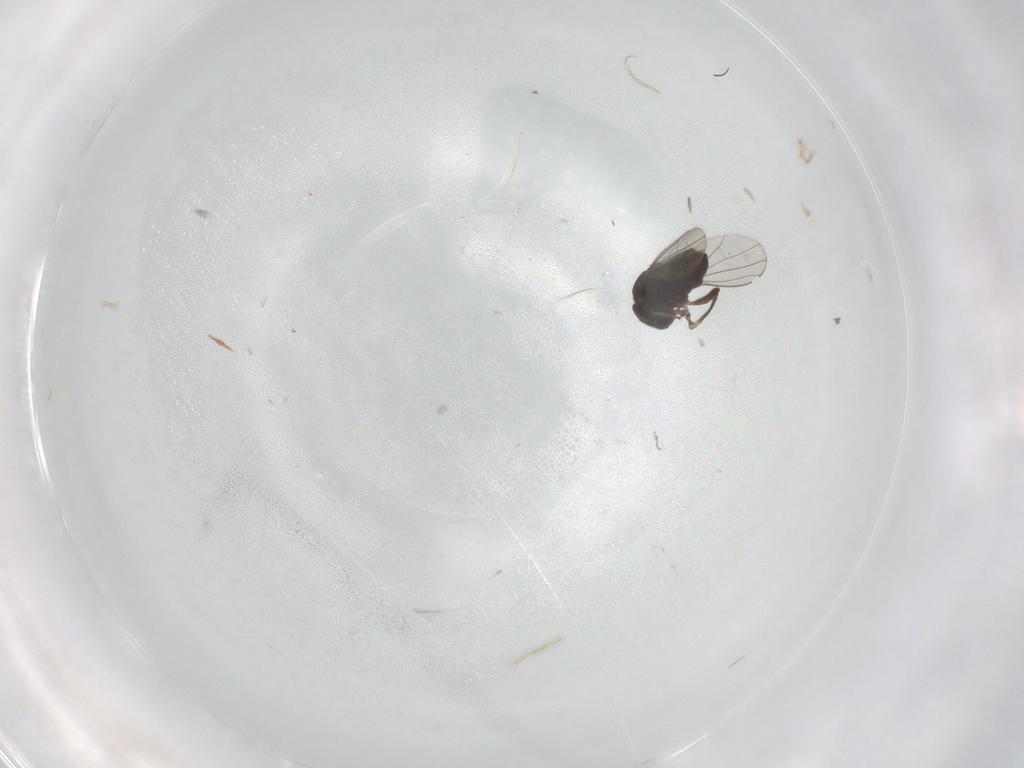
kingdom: Animalia
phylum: Arthropoda
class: Insecta
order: Diptera
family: Dolichopodidae
